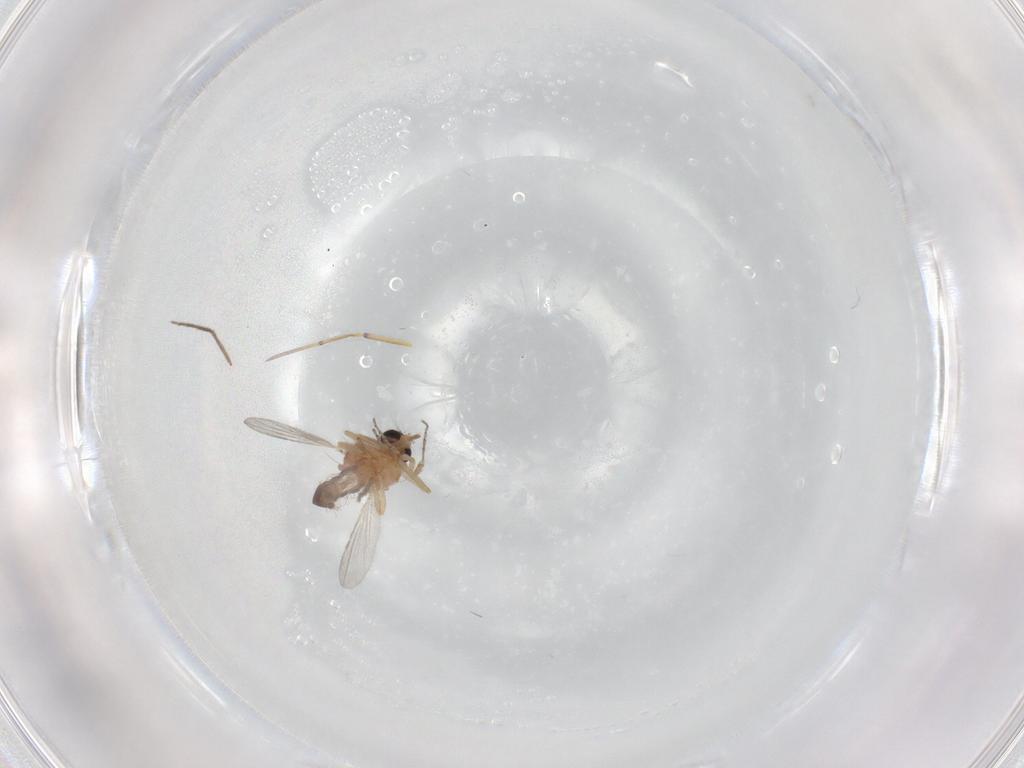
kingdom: Animalia
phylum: Arthropoda
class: Insecta
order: Diptera
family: Ceratopogonidae
